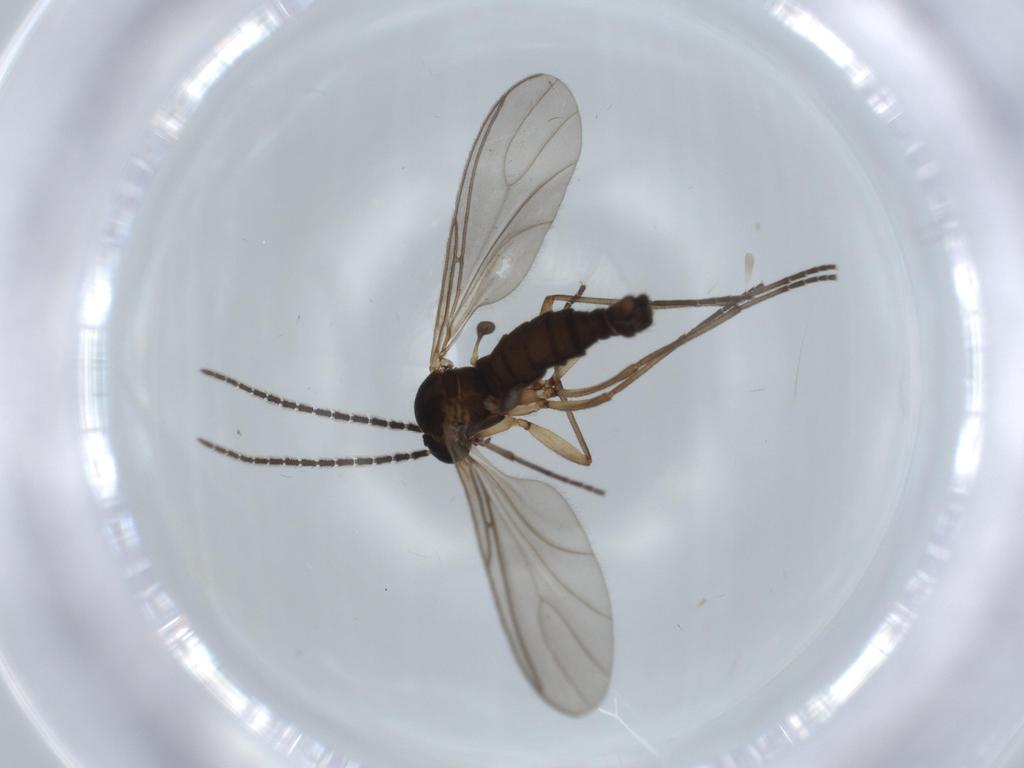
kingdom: Animalia
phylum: Arthropoda
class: Insecta
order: Diptera
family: Sciaridae
